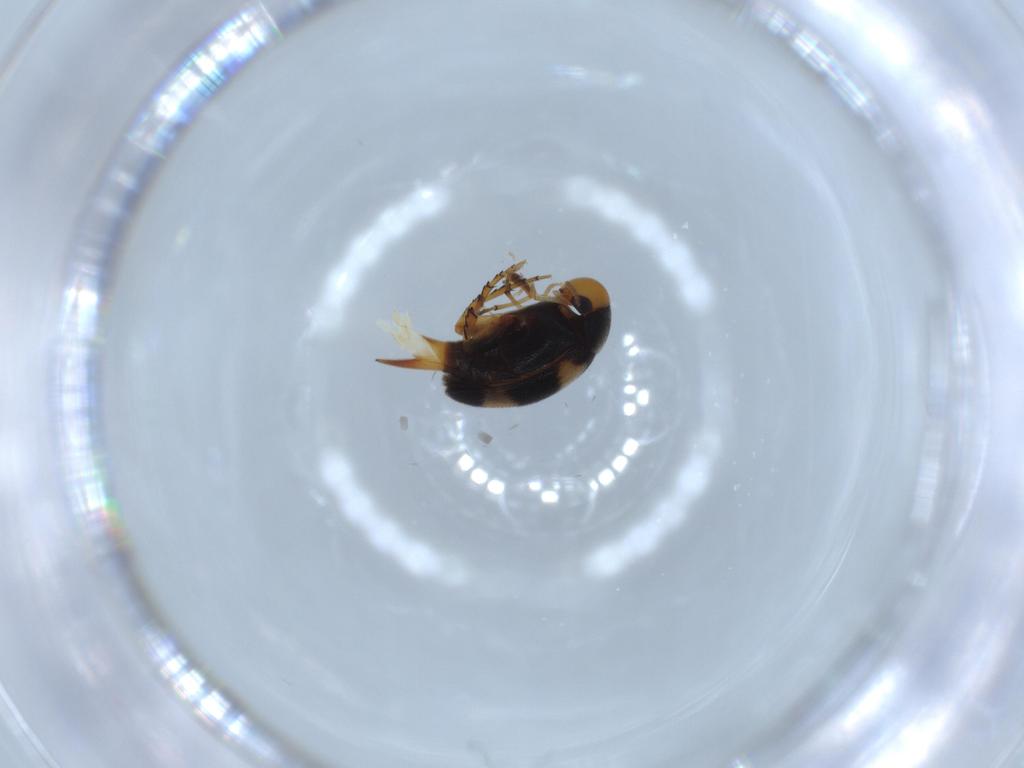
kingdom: Animalia
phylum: Arthropoda
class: Insecta
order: Coleoptera
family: Mordellidae
